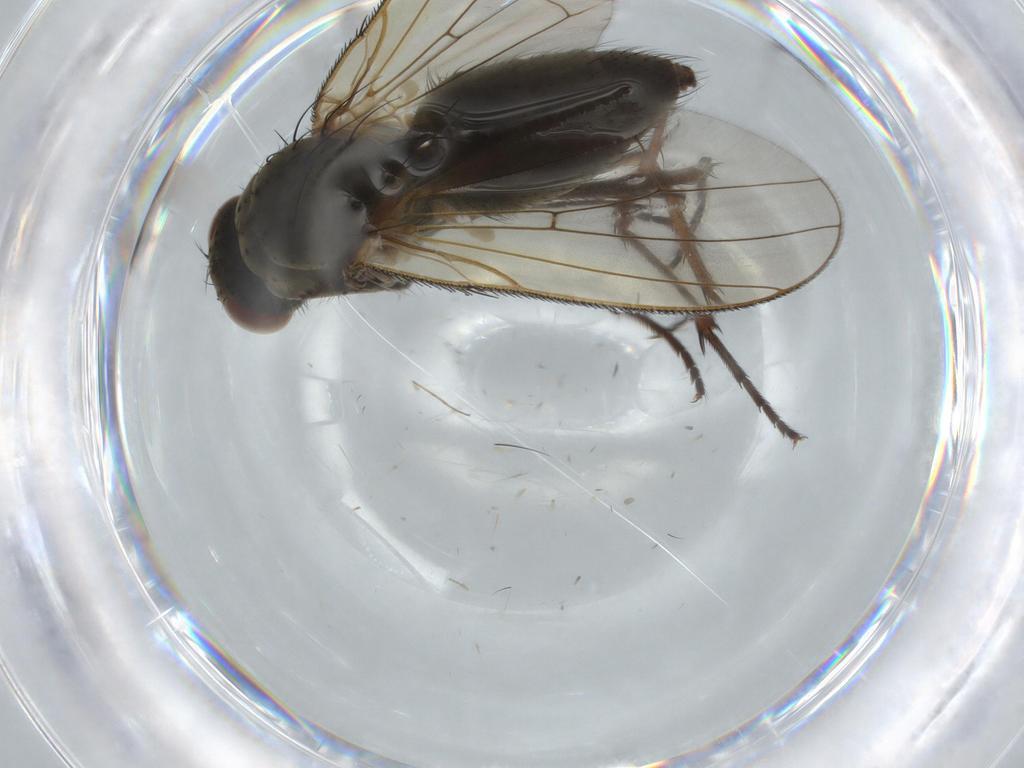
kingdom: Animalia
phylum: Arthropoda
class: Insecta
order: Diptera
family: Anthomyiidae
